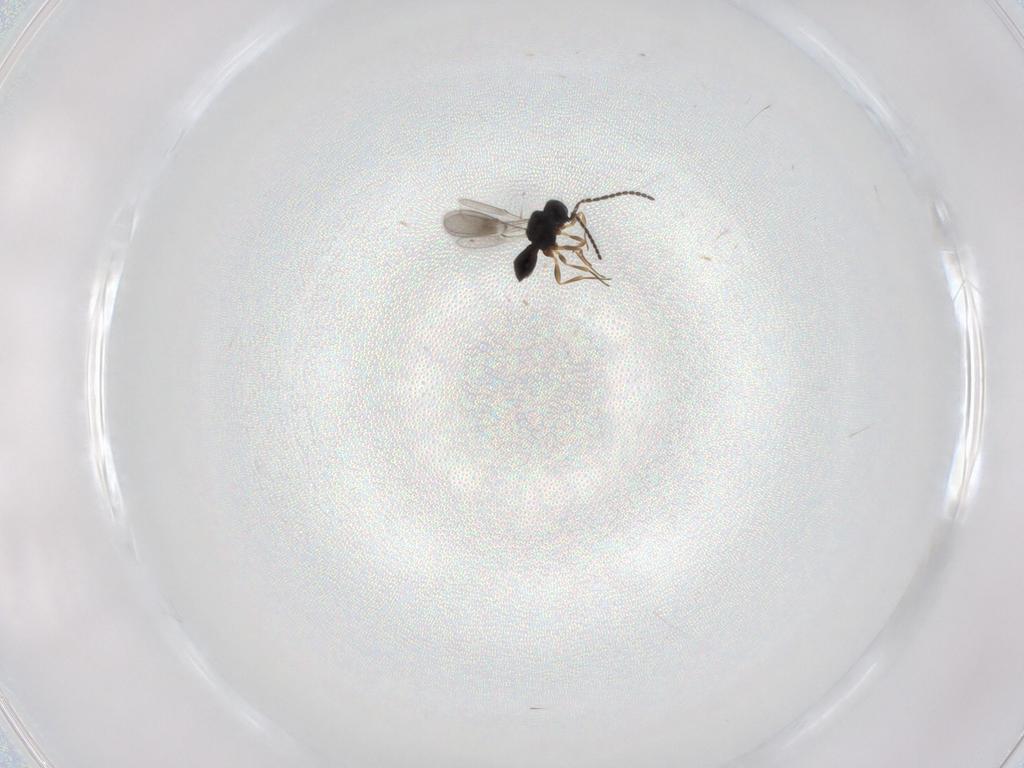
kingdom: Animalia
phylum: Arthropoda
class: Insecta
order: Hymenoptera
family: Scelionidae
